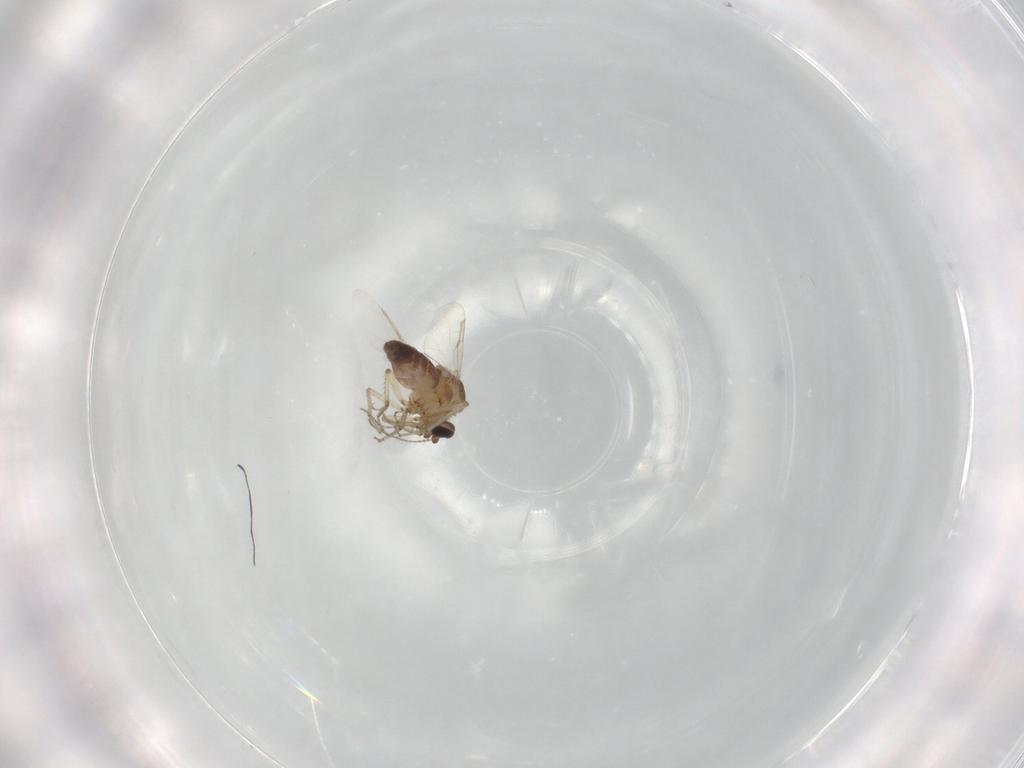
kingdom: Animalia
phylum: Arthropoda
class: Insecta
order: Diptera
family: Ceratopogonidae
